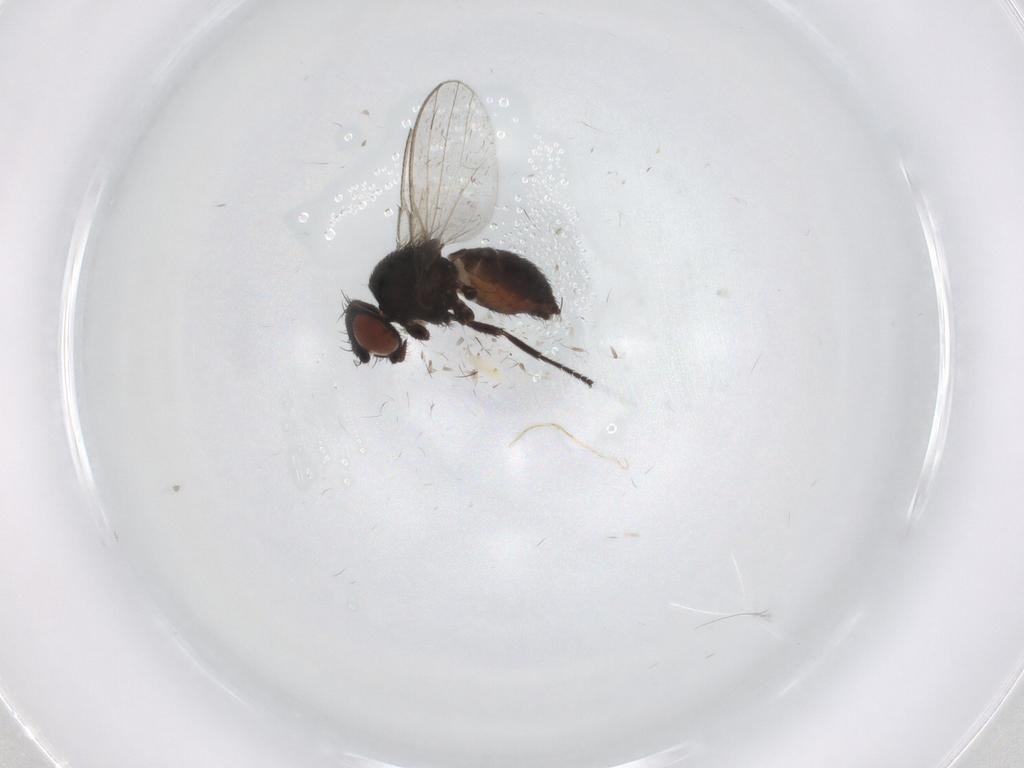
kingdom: Animalia
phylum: Arthropoda
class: Insecta
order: Diptera
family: Milichiidae
